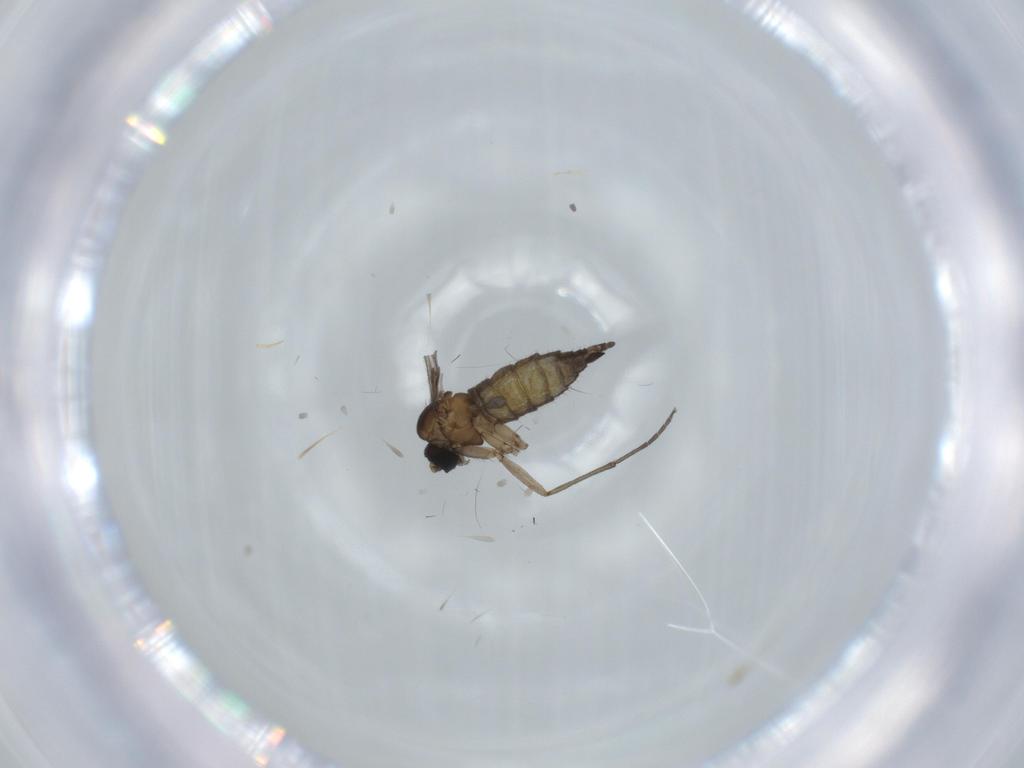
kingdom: Animalia
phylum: Arthropoda
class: Insecta
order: Diptera
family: Sciaridae
